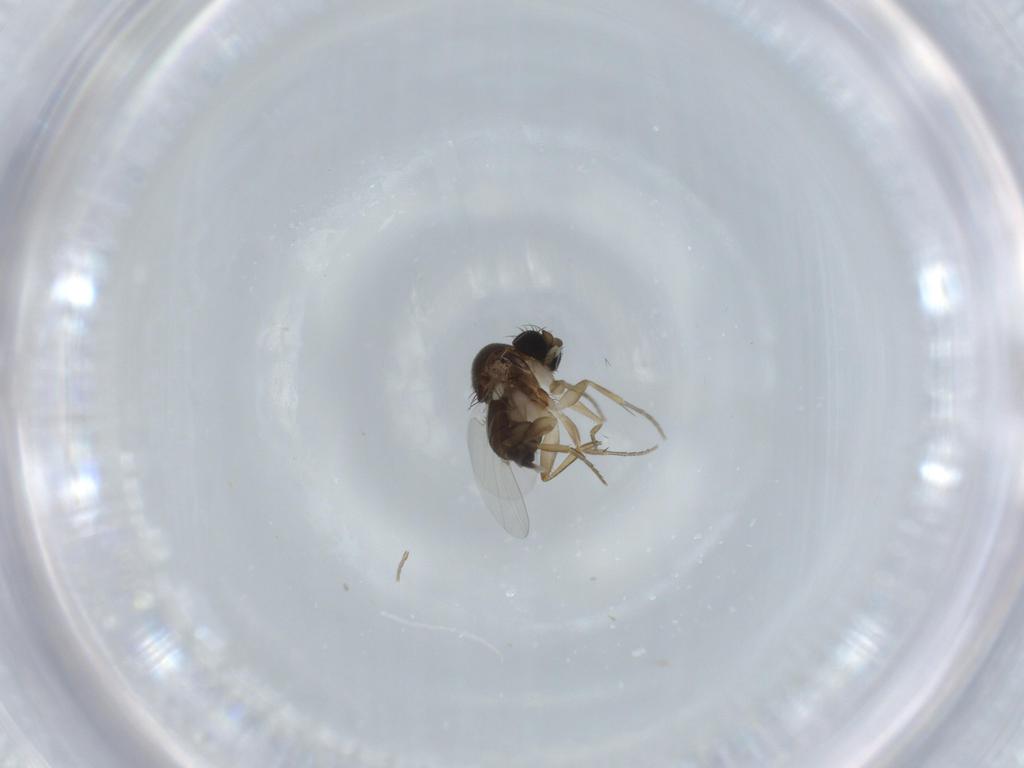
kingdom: Animalia
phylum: Arthropoda
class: Insecta
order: Diptera
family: Phoridae
